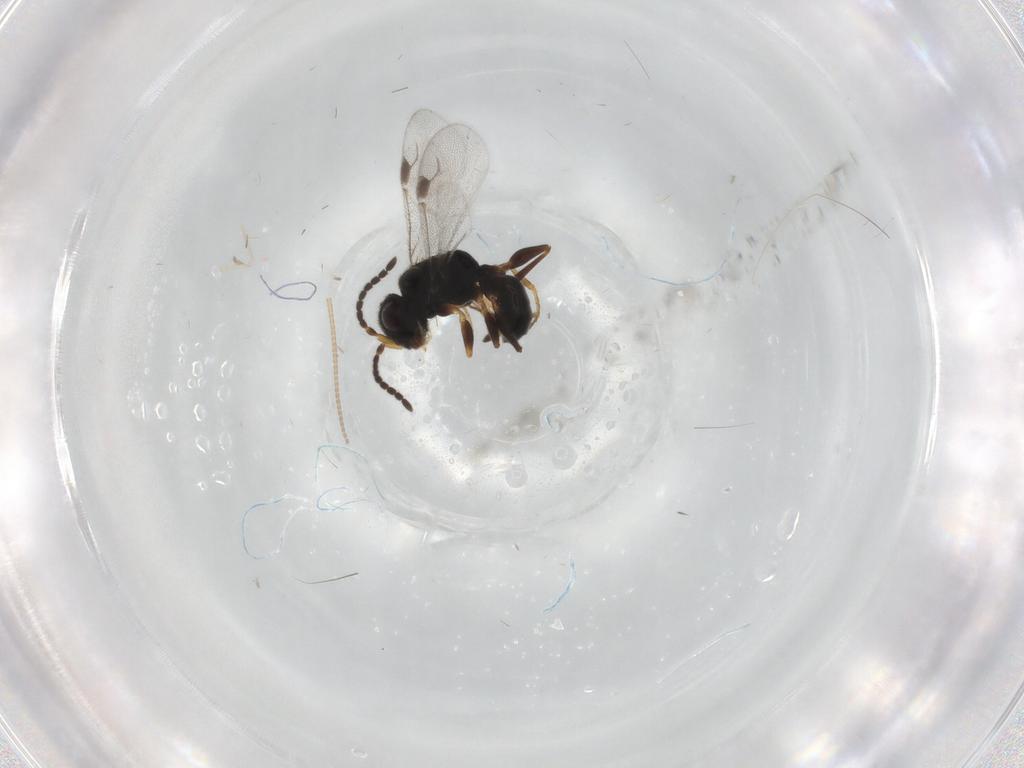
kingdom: Animalia
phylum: Arthropoda
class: Insecta
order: Hymenoptera
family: Dryinidae
